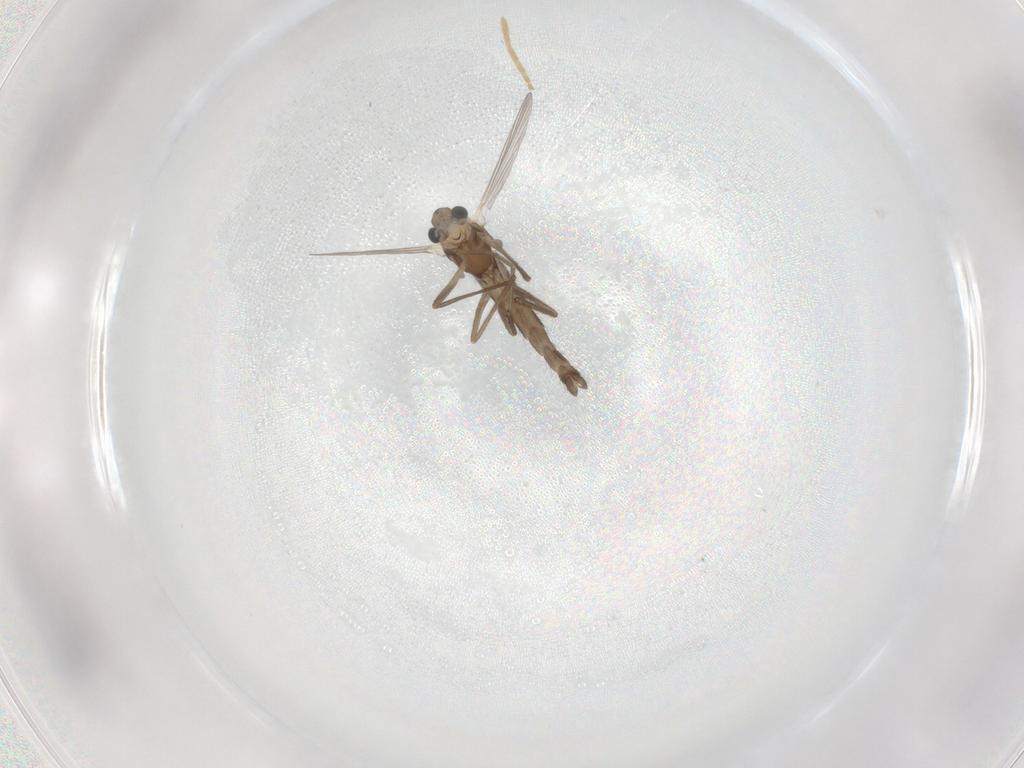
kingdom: Animalia
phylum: Arthropoda
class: Insecta
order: Diptera
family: Chironomidae
